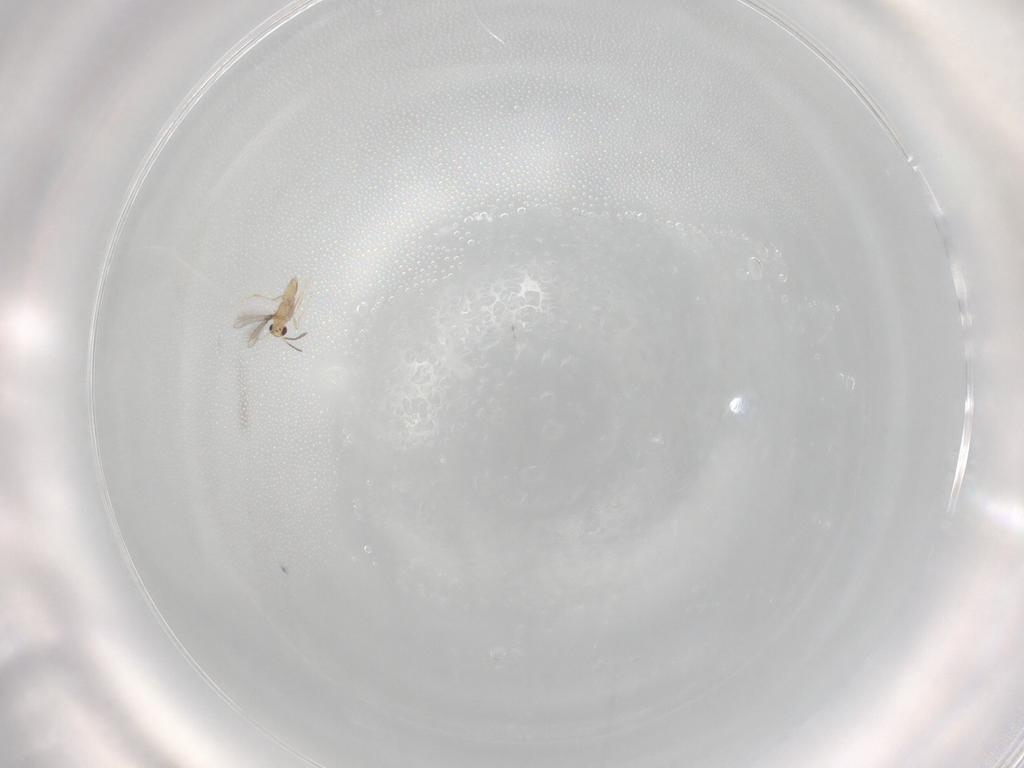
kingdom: Animalia
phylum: Arthropoda
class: Insecta
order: Hymenoptera
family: Mymaridae
